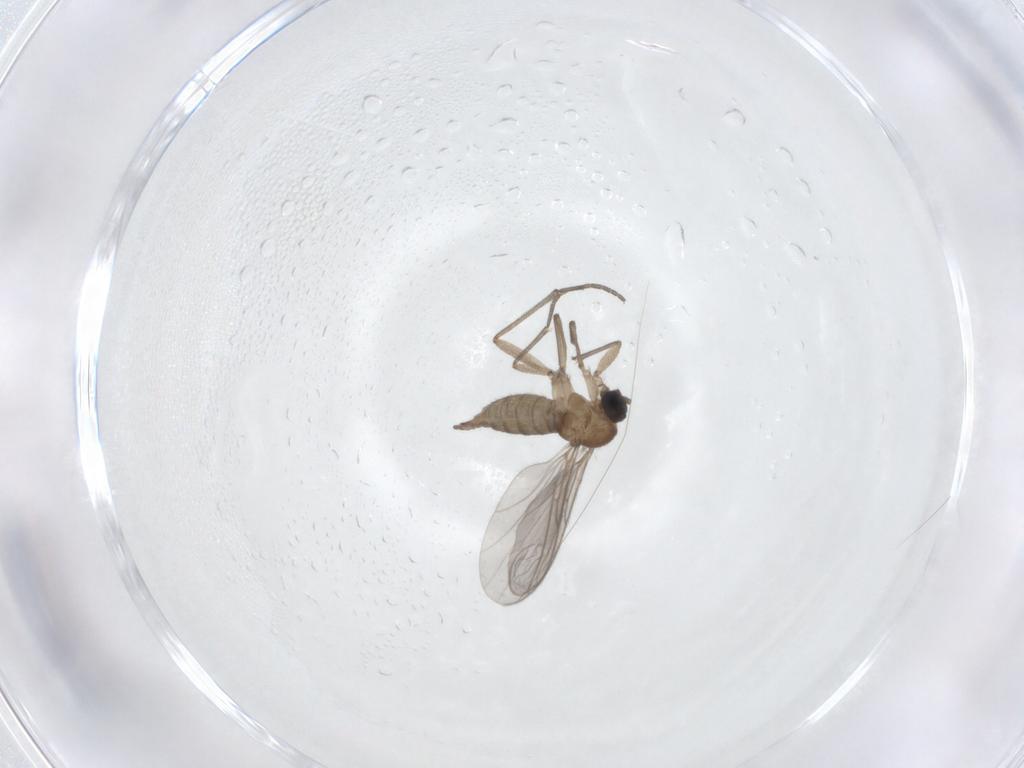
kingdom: Animalia
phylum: Arthropoda
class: Insecta
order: Diptera
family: Sciaridae
